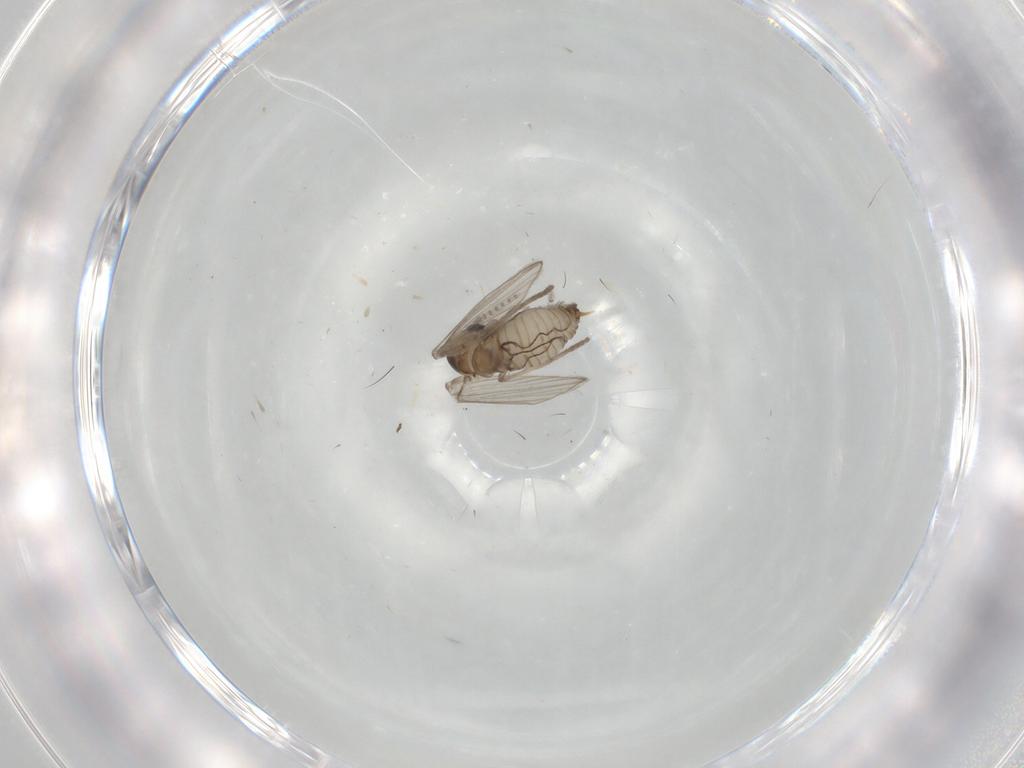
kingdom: Animalia
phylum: Arthropoda
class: Insecta
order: Diptera
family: Psychodidae
